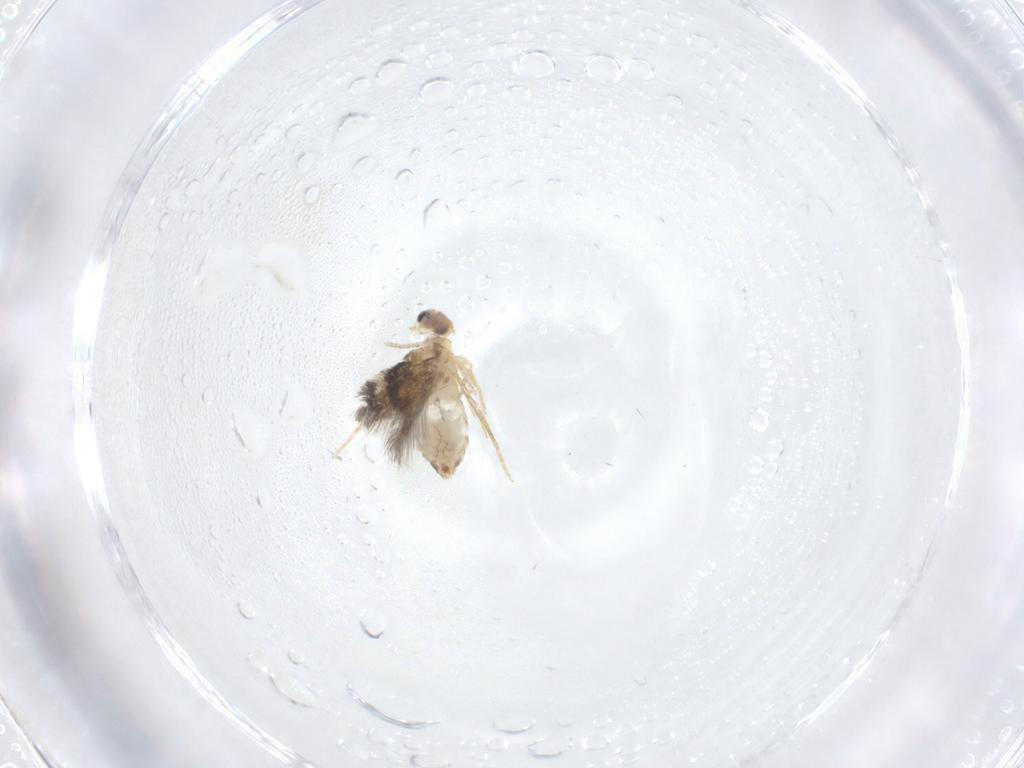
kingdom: Animalia
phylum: Arthropoda
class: Insecta
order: Lepidoptera
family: Nepticulidae
